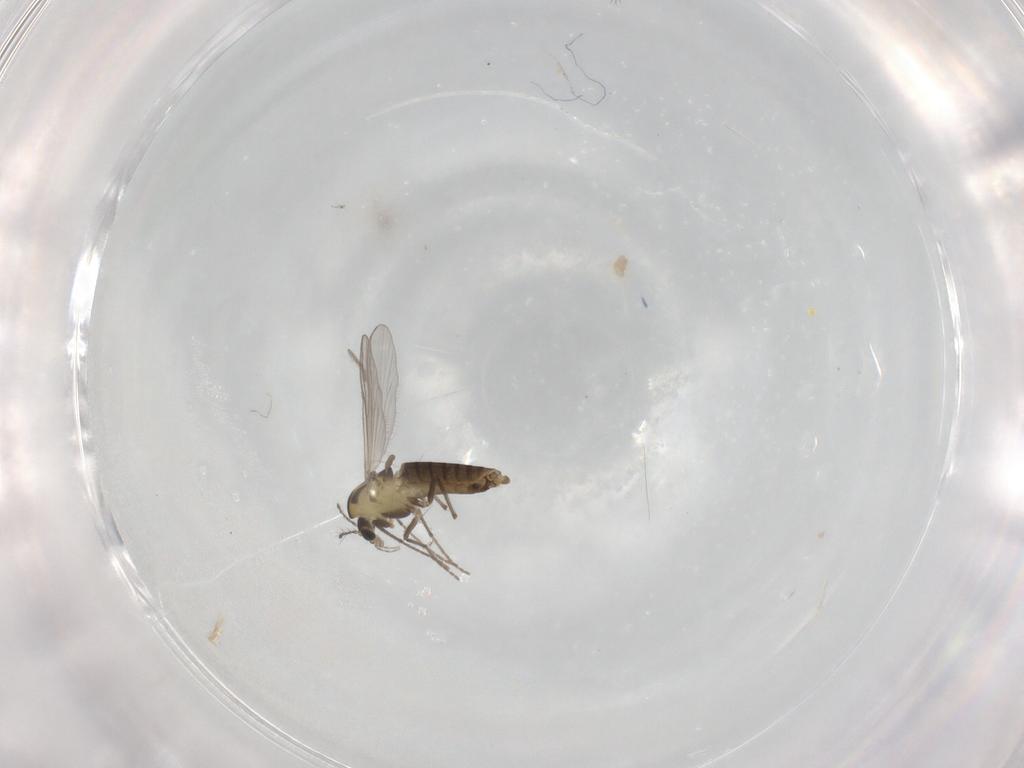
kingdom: Animalia
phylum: Arthropoda
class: Insecta
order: Diptera
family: Chironomidae
